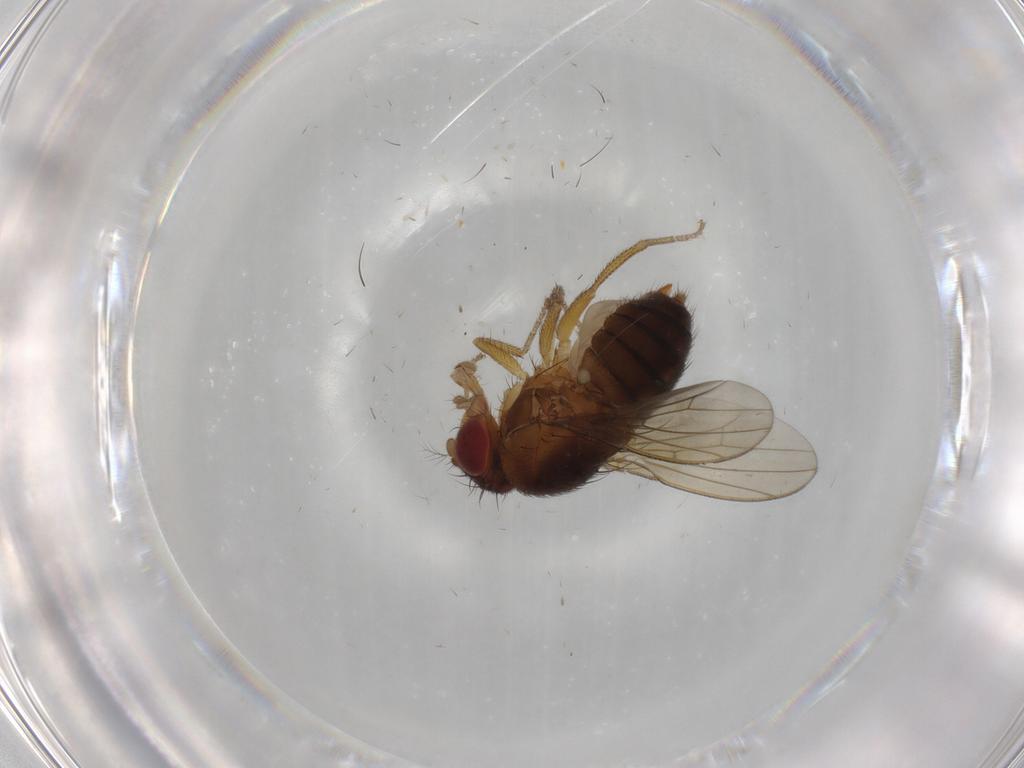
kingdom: Animalia
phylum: Arthropoda
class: Insecta
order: Diptera
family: Drosophilidae
